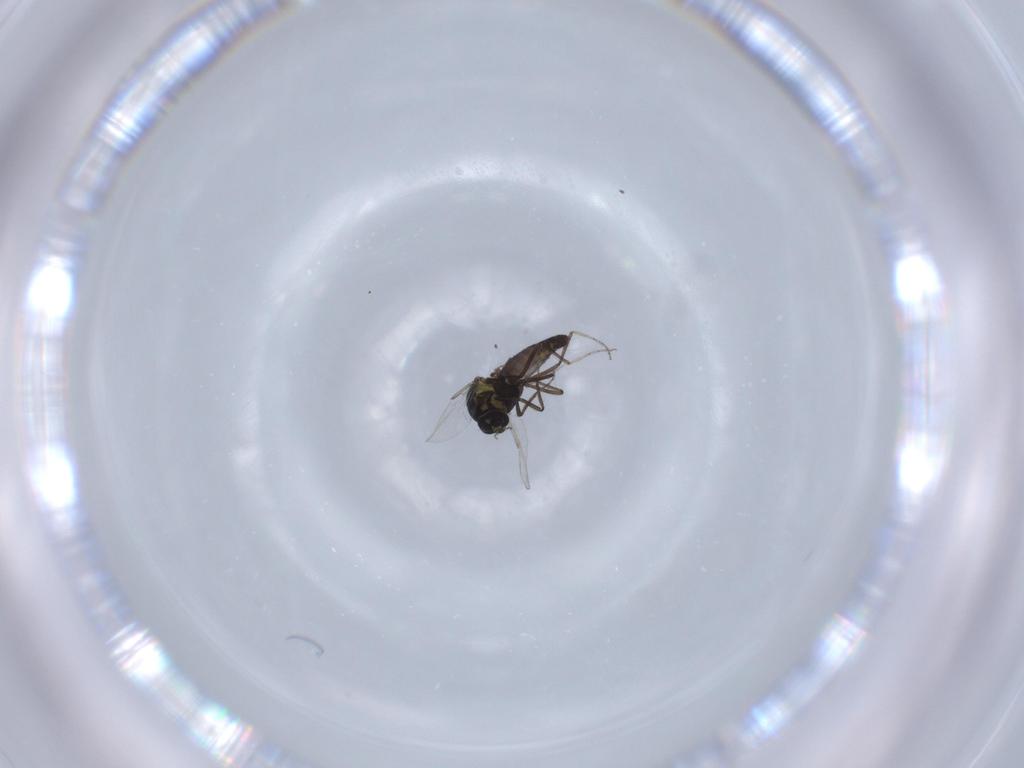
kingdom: Animalia
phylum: Arthropoda
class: Insecta
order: Diptera
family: Ceratopogonidae
